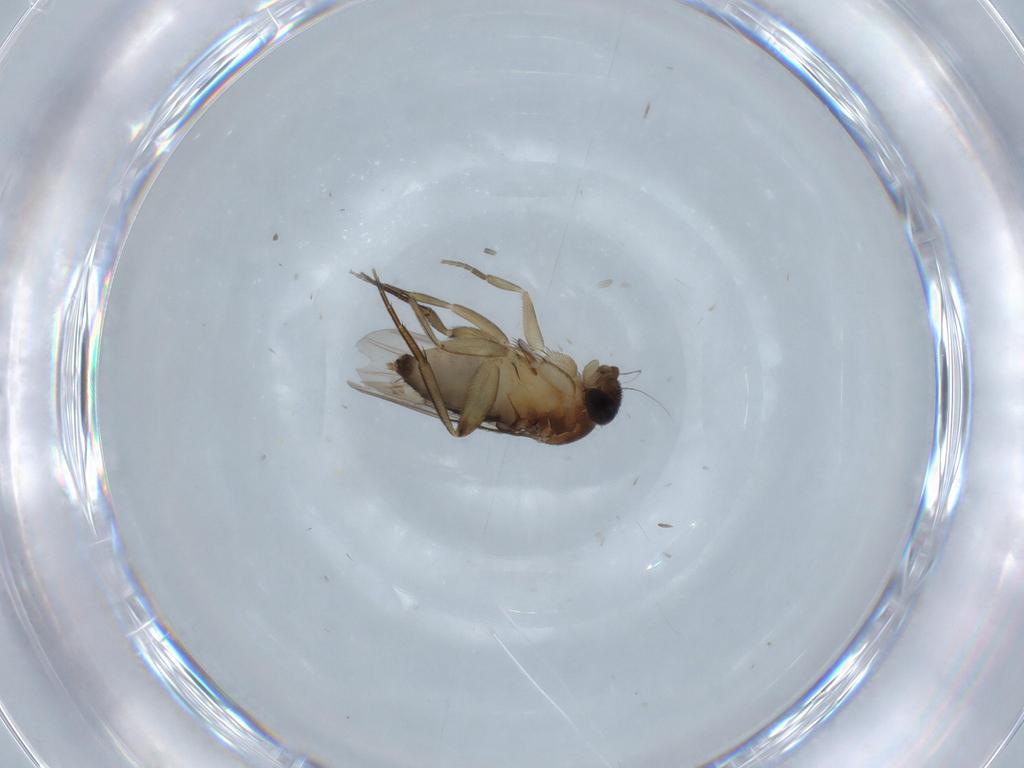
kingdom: Animalia
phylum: Arthropoda
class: Insecta
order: Diptera
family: Phoridae
